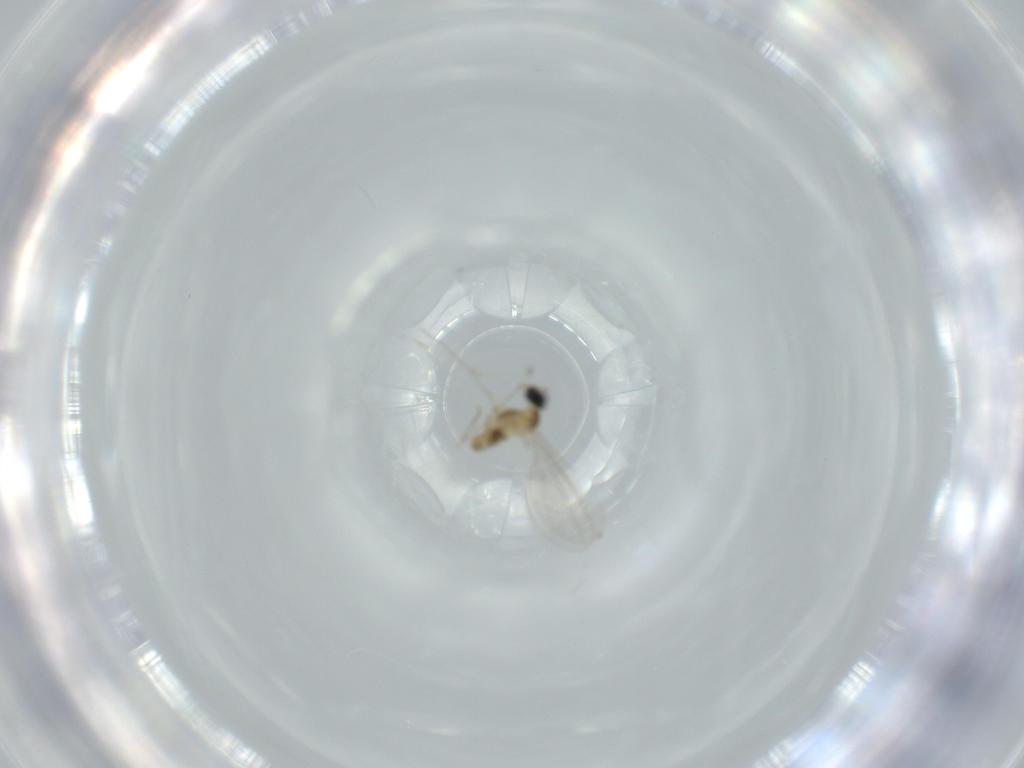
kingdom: Animalia
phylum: Arthropoda
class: Insecta
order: Diptera
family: Cecidomyiidae
